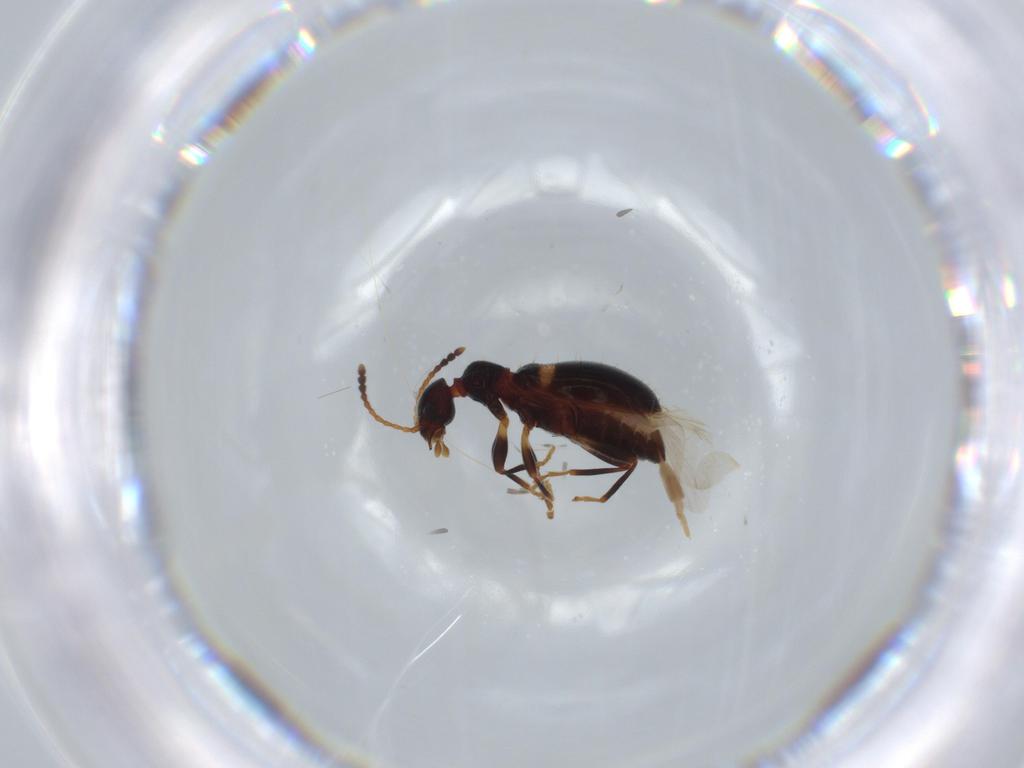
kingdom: Animalia
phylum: Arthropoda
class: Insecta
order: Coleoptera
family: Anthicidae
